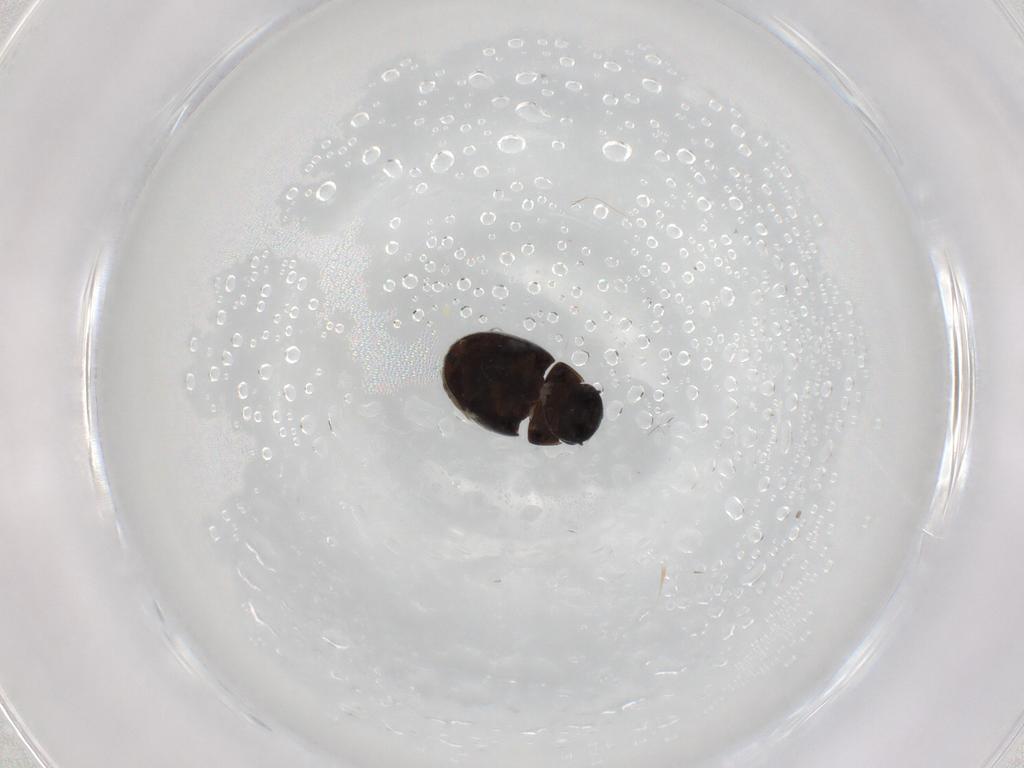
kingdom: Animalia
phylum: Arthropoda
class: Insecta
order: Coleoptera
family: Hydrophilidae
